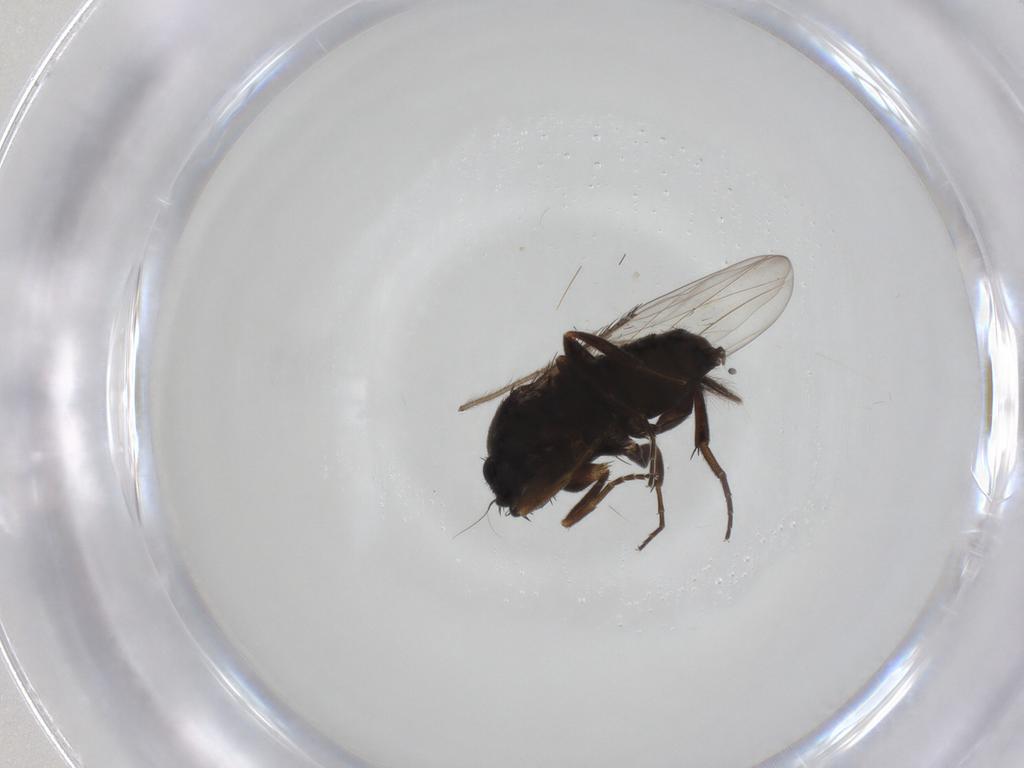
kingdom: Animalia
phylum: Arthropoda
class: Insecta
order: Diptera
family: Phoridae
